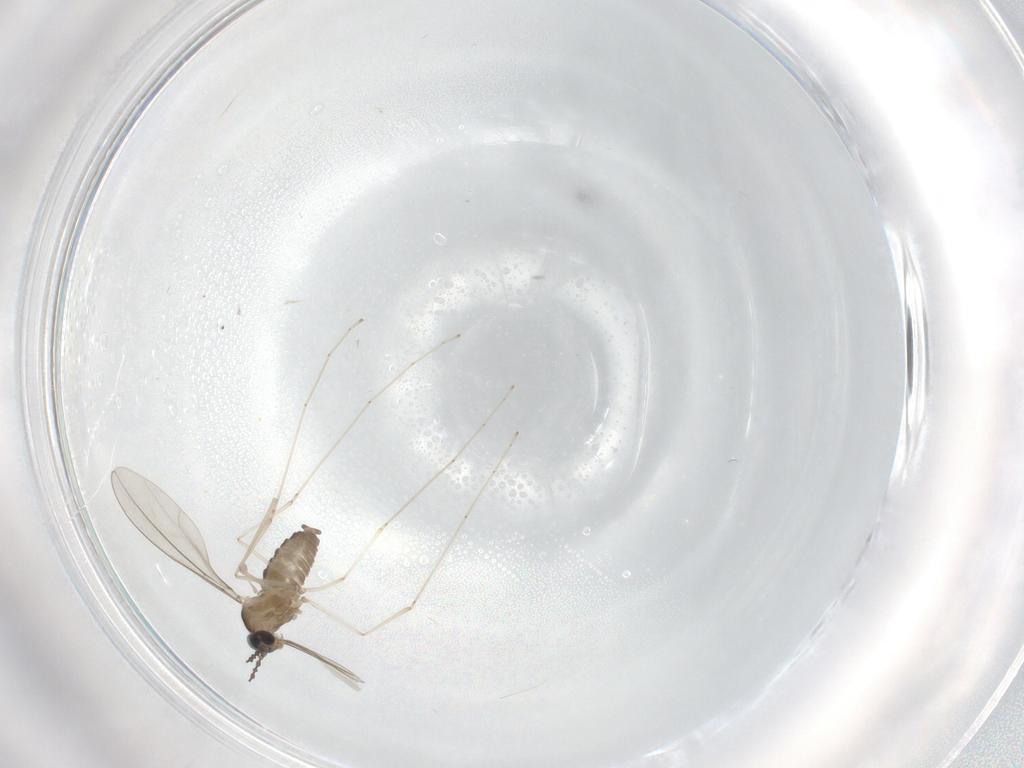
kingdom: Animalia
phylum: Arthropoda
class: Insecta
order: Diptera
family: Cecidomyiidae
